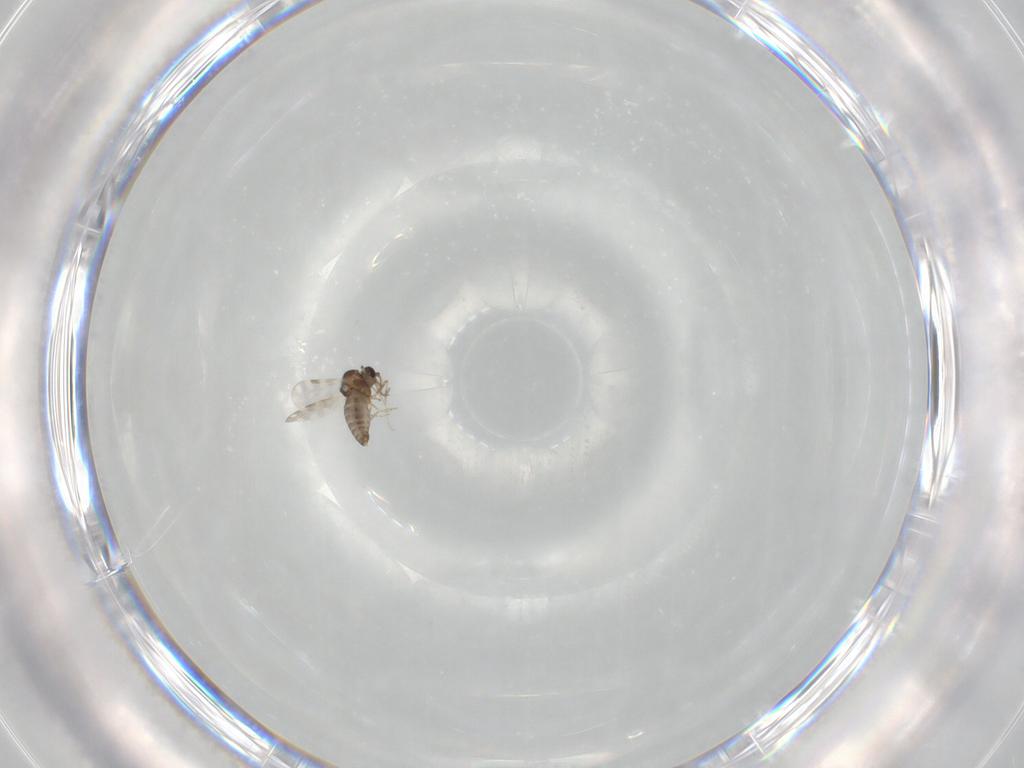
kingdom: Animalia
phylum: Arthropoda
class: Insecta
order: Diptera
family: Ceratopogonidae
